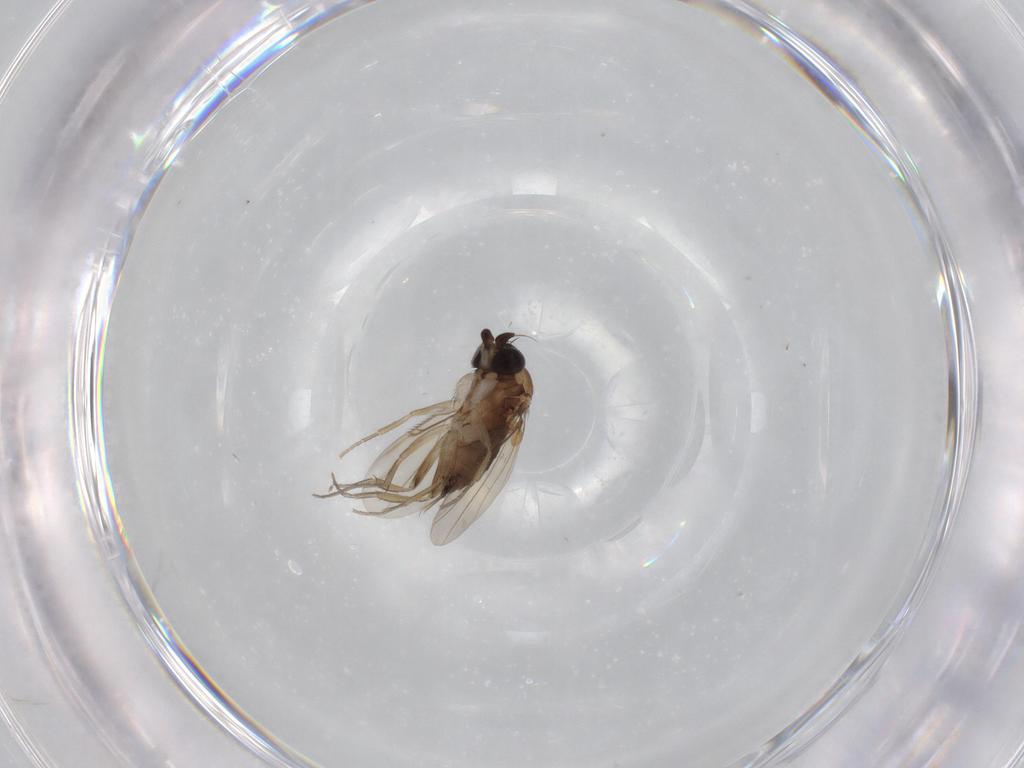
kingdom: Animalia
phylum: Arthropoda
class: Insecta
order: Diptera
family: Phoridae
